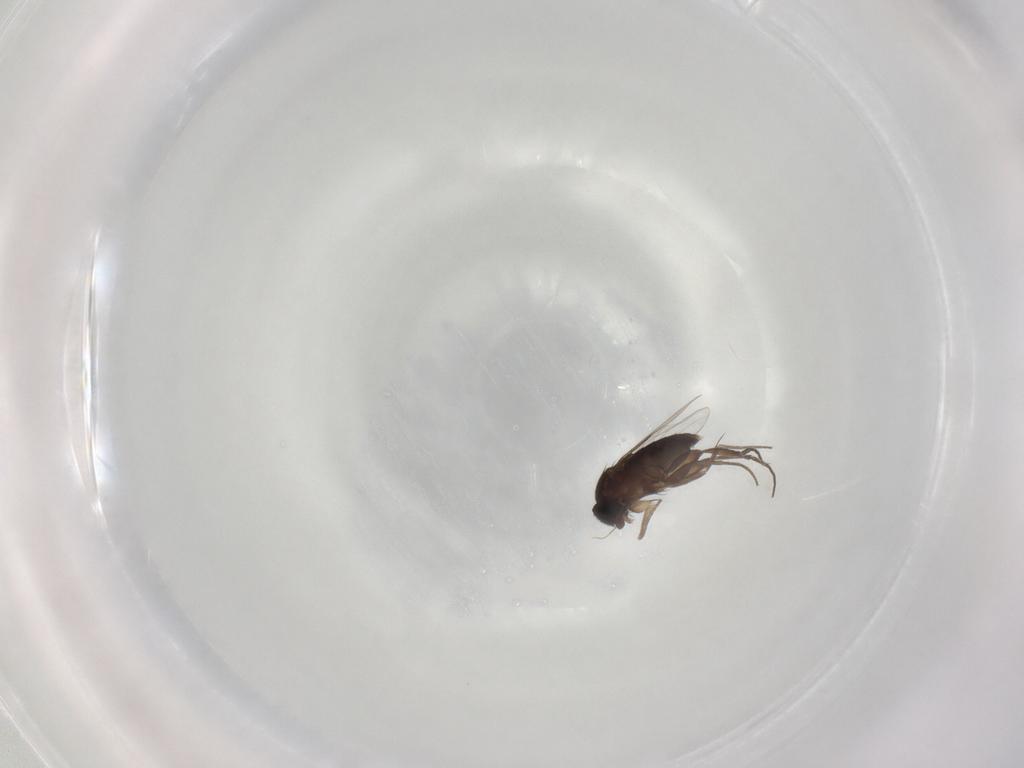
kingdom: Animalia
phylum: Arthropoda
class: Insecta
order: Diptera
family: Phoridae
